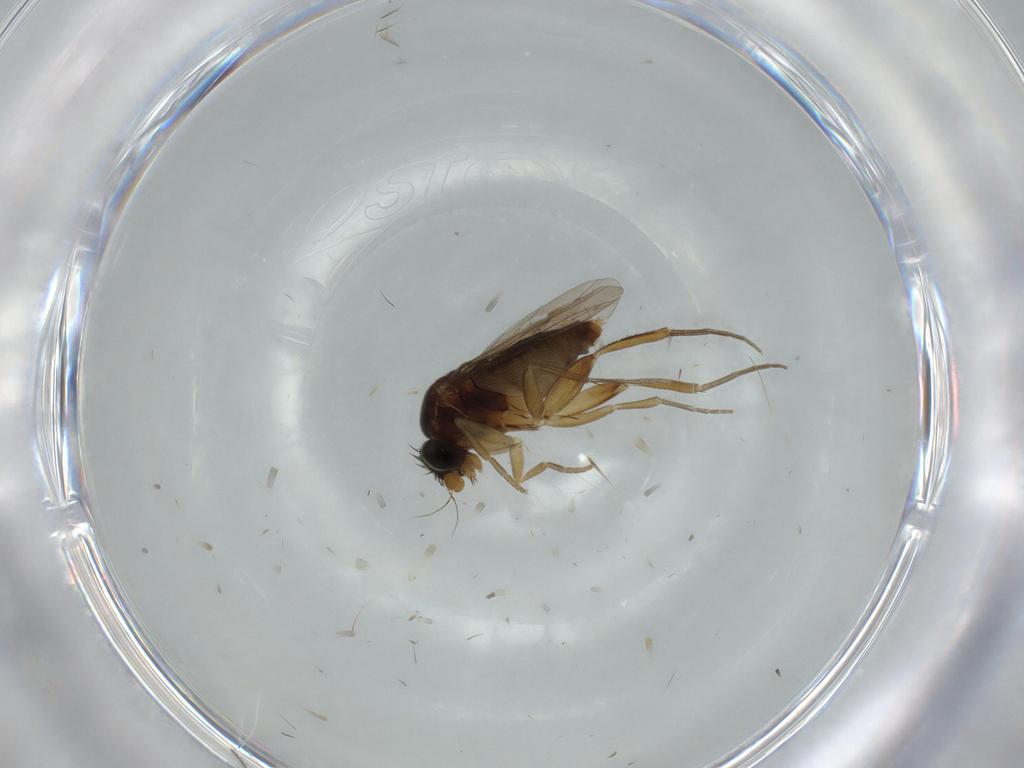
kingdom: Animalia
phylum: Arthropoda
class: Insecta
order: Diptera
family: Phoridae
